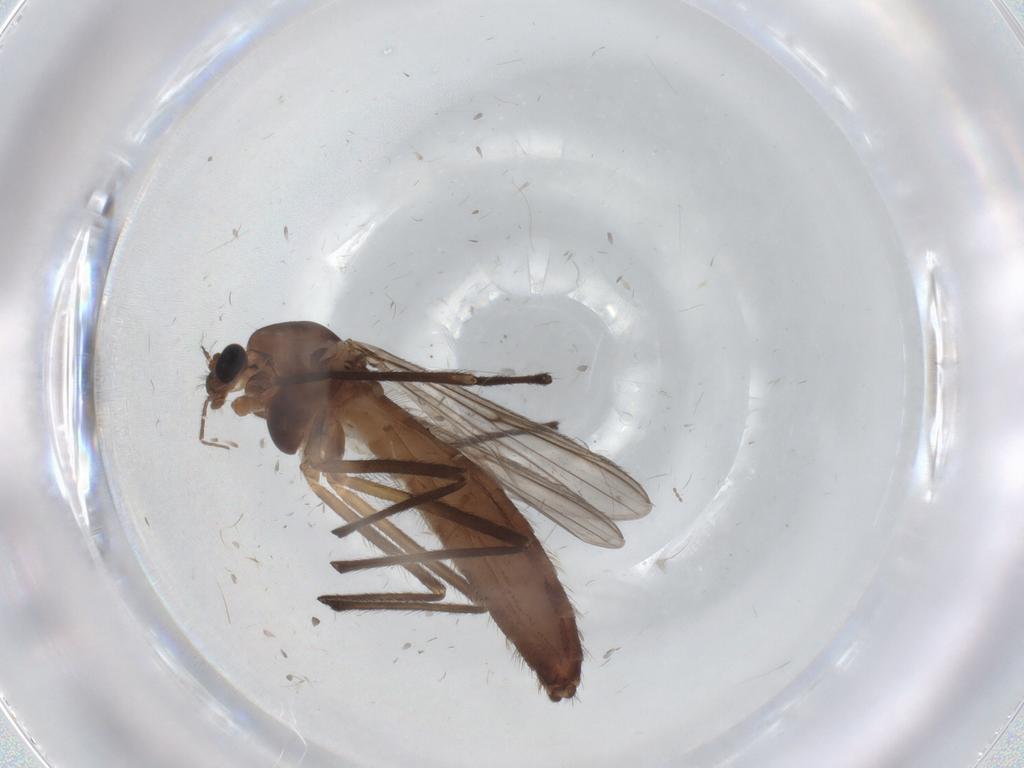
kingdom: Animalia
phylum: Arthropoda
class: Insecta
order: Diptera
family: Chironomidae
